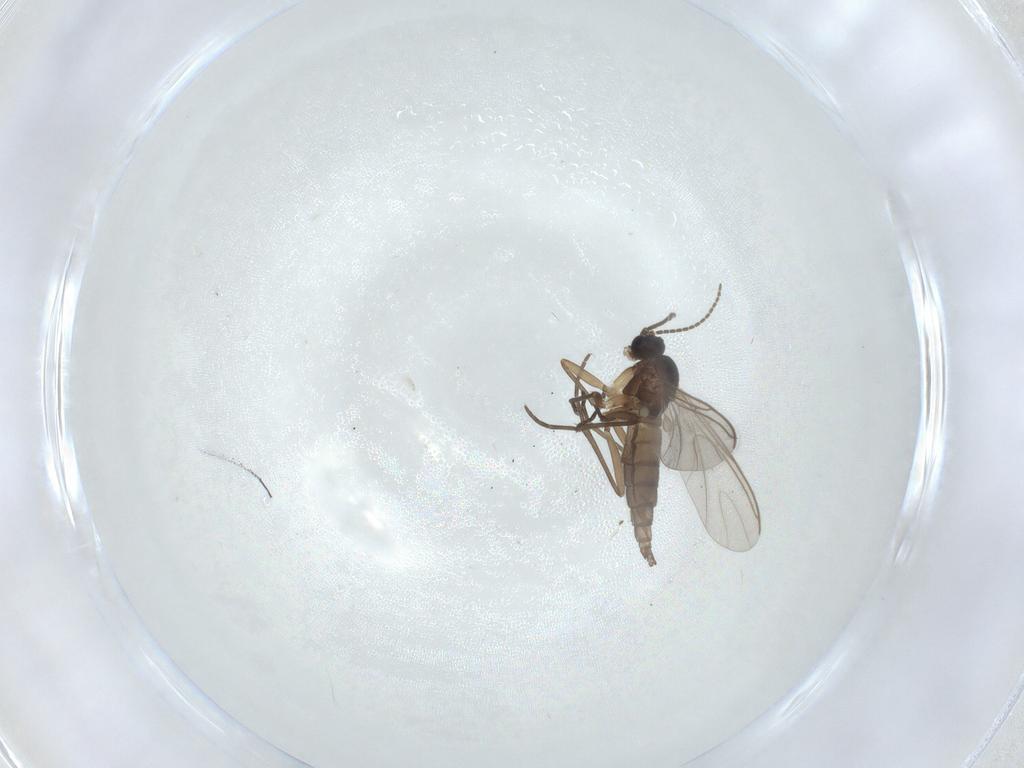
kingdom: Animalia
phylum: Arthropoda
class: Insecta
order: Diptera
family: Sciaridae
